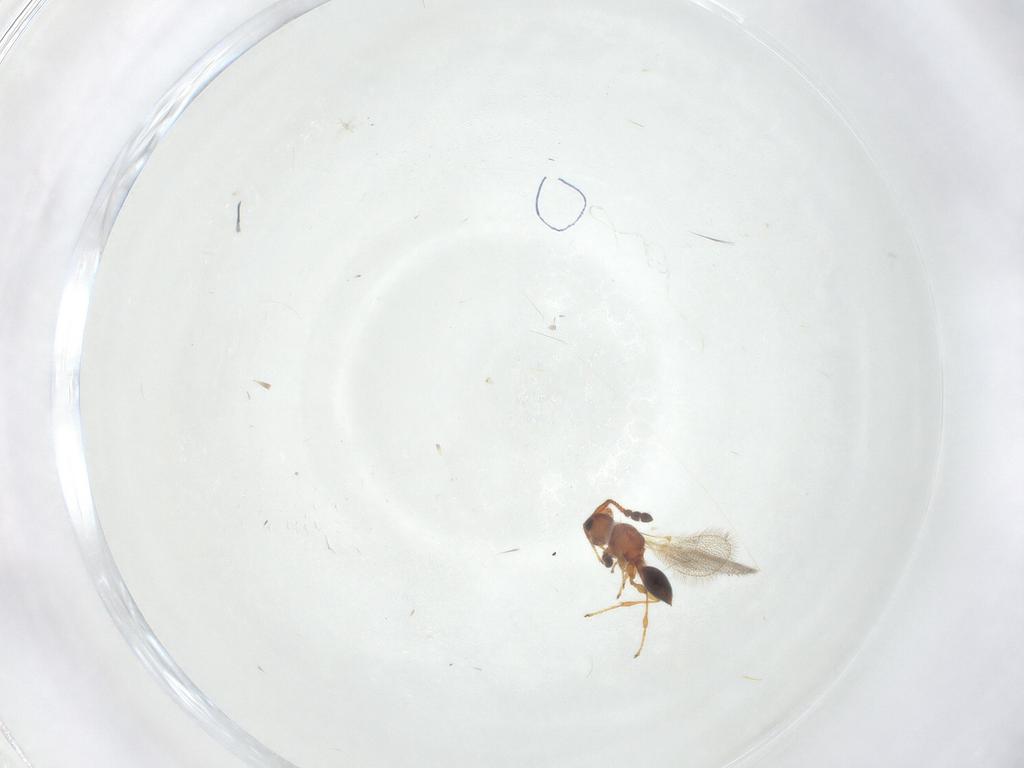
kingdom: Animalia
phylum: Arthropoda
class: Insecta
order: Hymenoptera
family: Diapriidae
